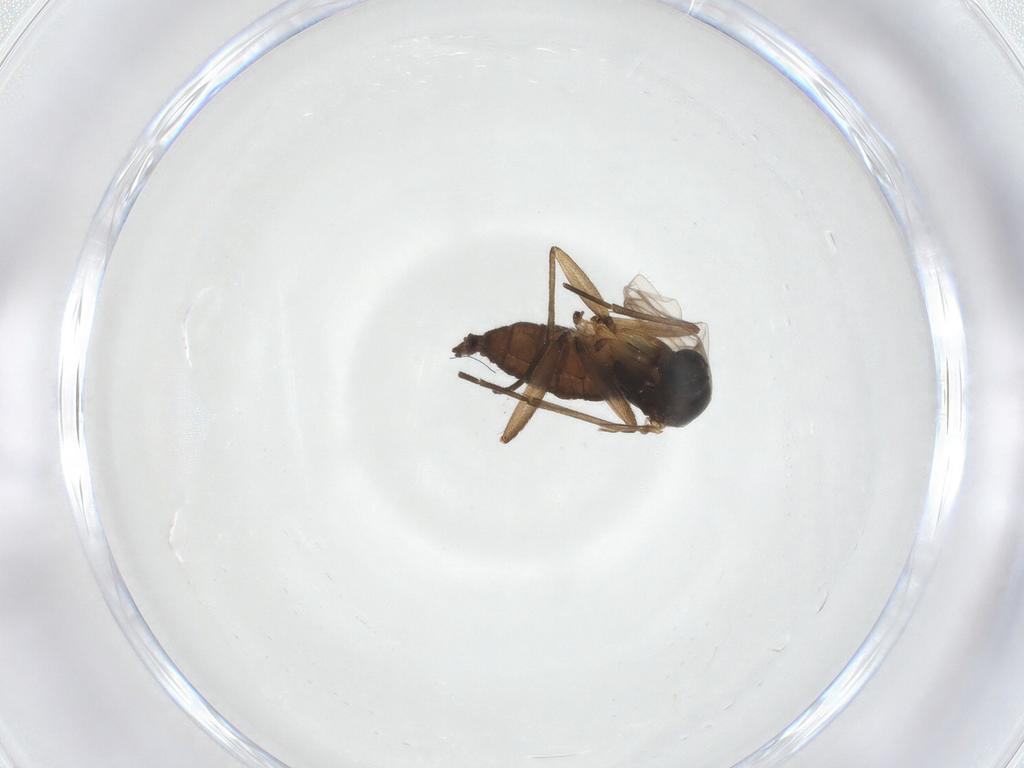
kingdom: Animalia
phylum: Arthropoda
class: Insecta
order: Diptera
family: Sciaridae
